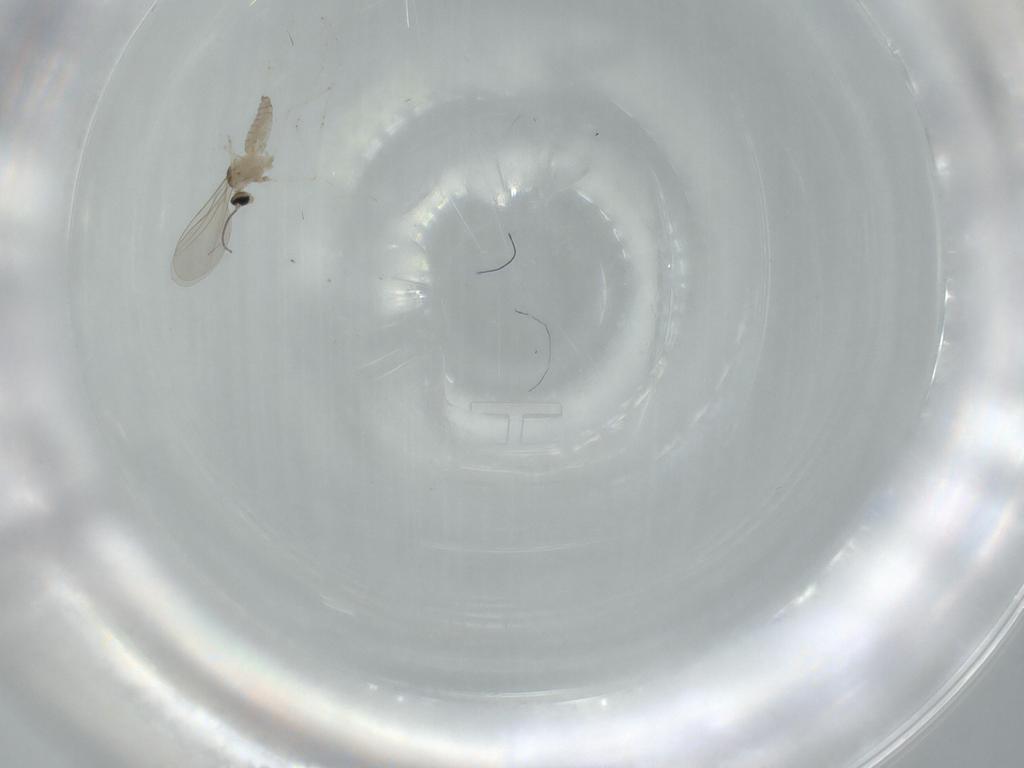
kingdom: Animalia
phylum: Arthropoda
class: Insecta
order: Diptera
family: Cecidomyiidae
